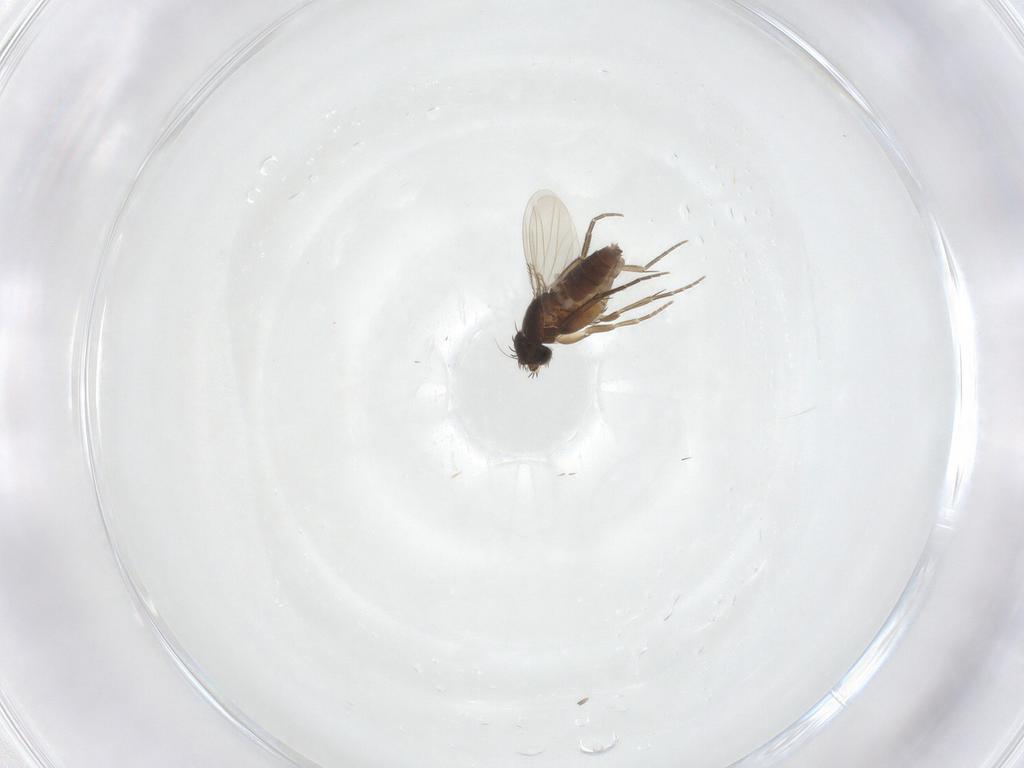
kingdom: Animalia
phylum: Arthropoda
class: Insecta
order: Diptera
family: Phoridae
